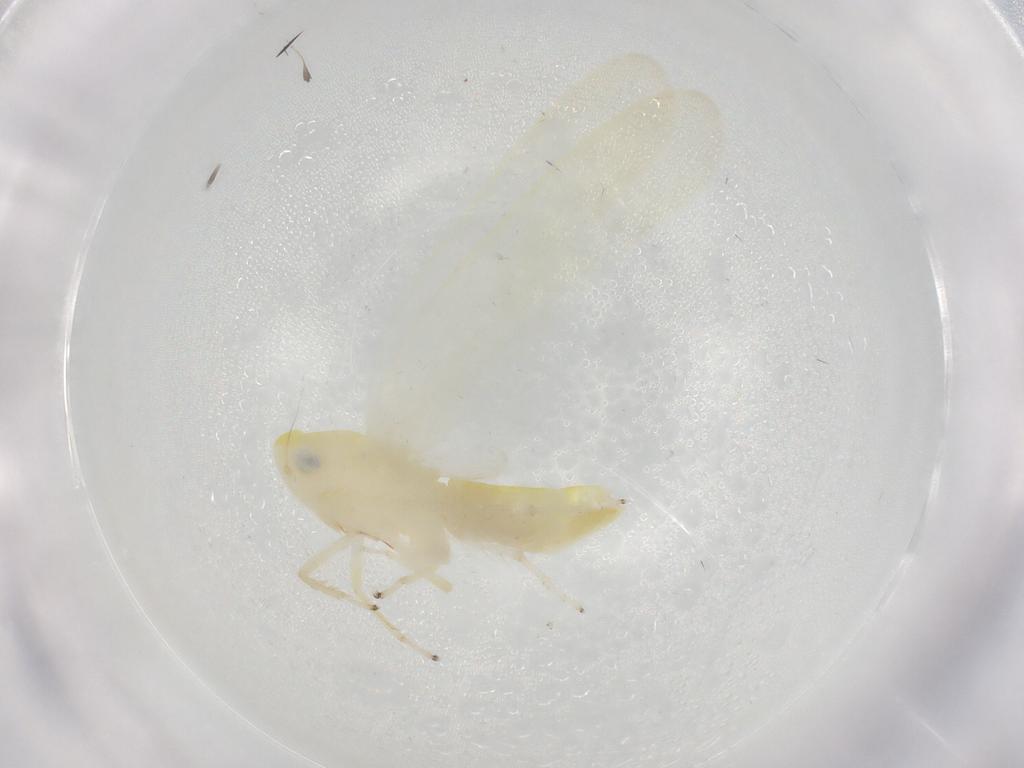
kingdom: Animalia
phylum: Arthropoda
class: Insecta
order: Hemiptera
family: Cicadellidae
